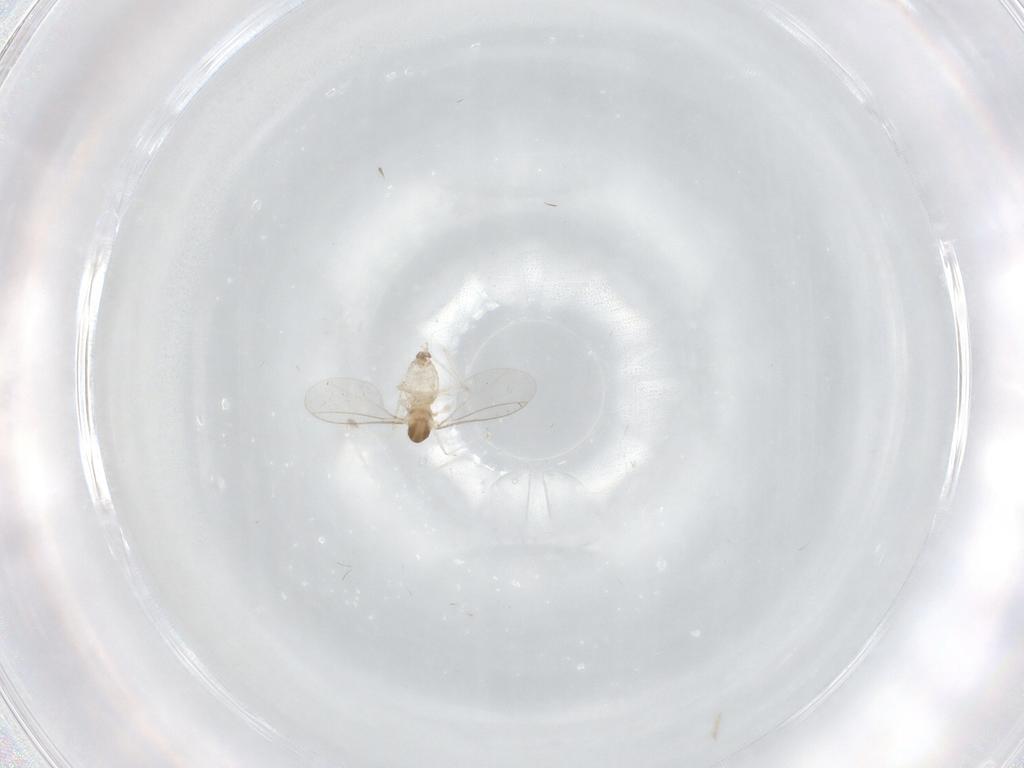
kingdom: Animalia
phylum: Arthropoda
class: Insecta
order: Diptera
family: Cecidomyiidae
